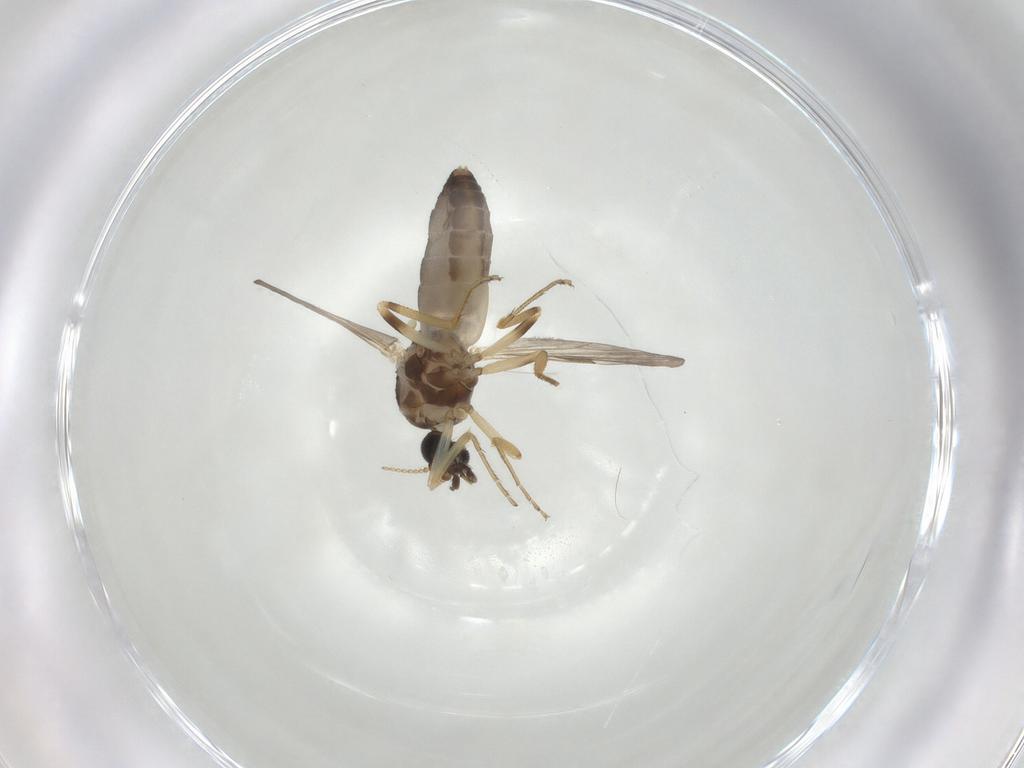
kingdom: Animalia
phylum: Arthropoda
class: Insecta
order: Diptera
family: Ceratopogonidae
